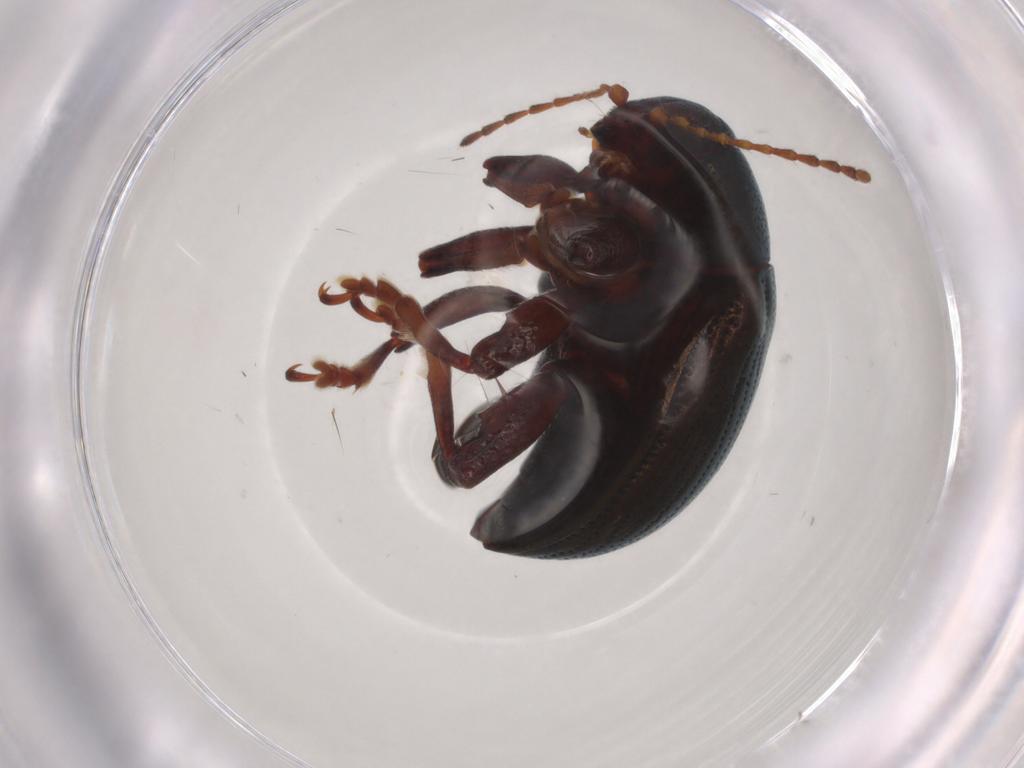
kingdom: Animalia
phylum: Arthropoda
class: Insecta
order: Coleoptera
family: Chrysomelidae
